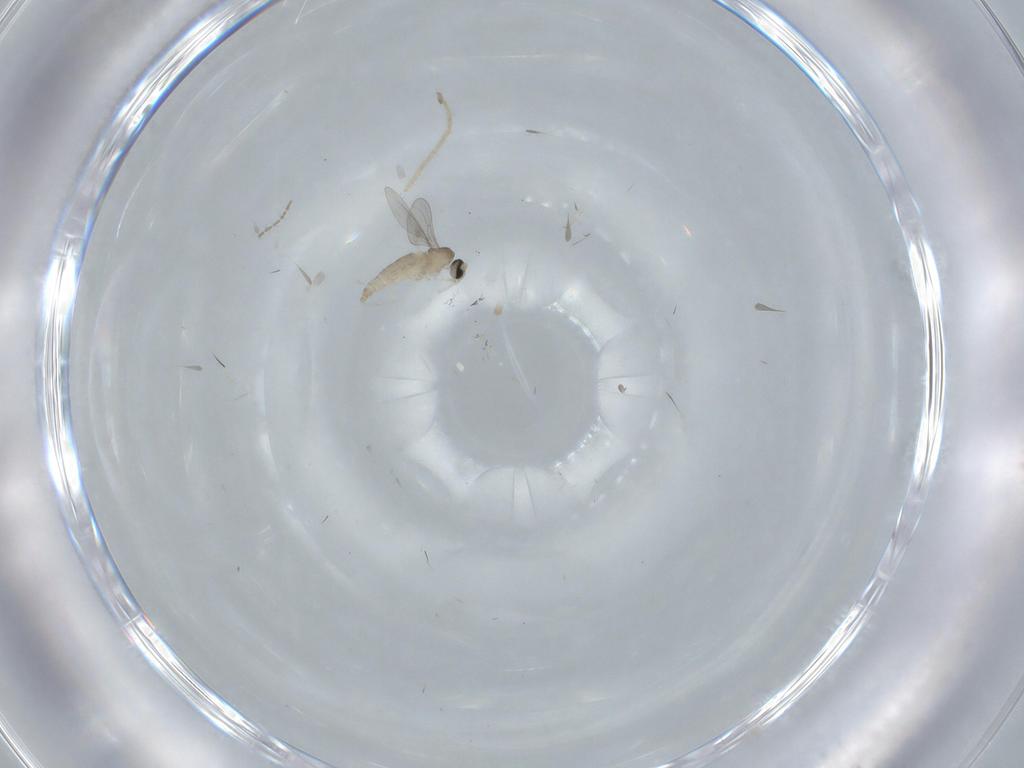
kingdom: Animalia
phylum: Arthropoda
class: Insecta
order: Diptera
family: Cecidomyiidae
